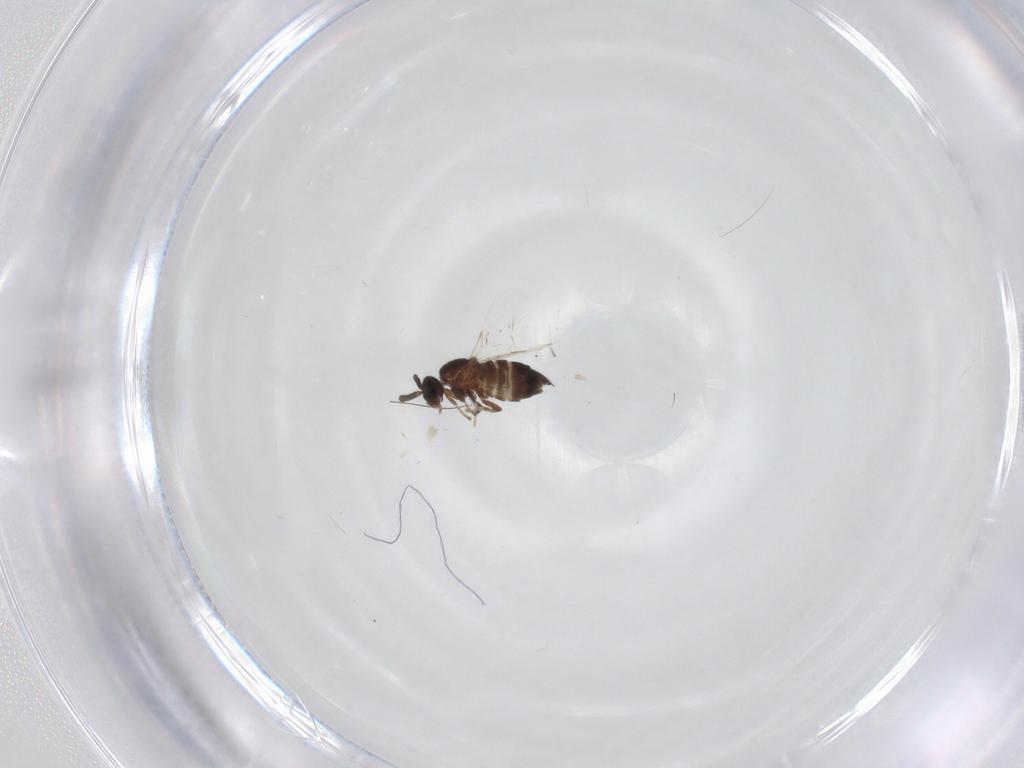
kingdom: Animalia
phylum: Arthropoda
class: Insecta
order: Diptera
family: Scatopsidae
